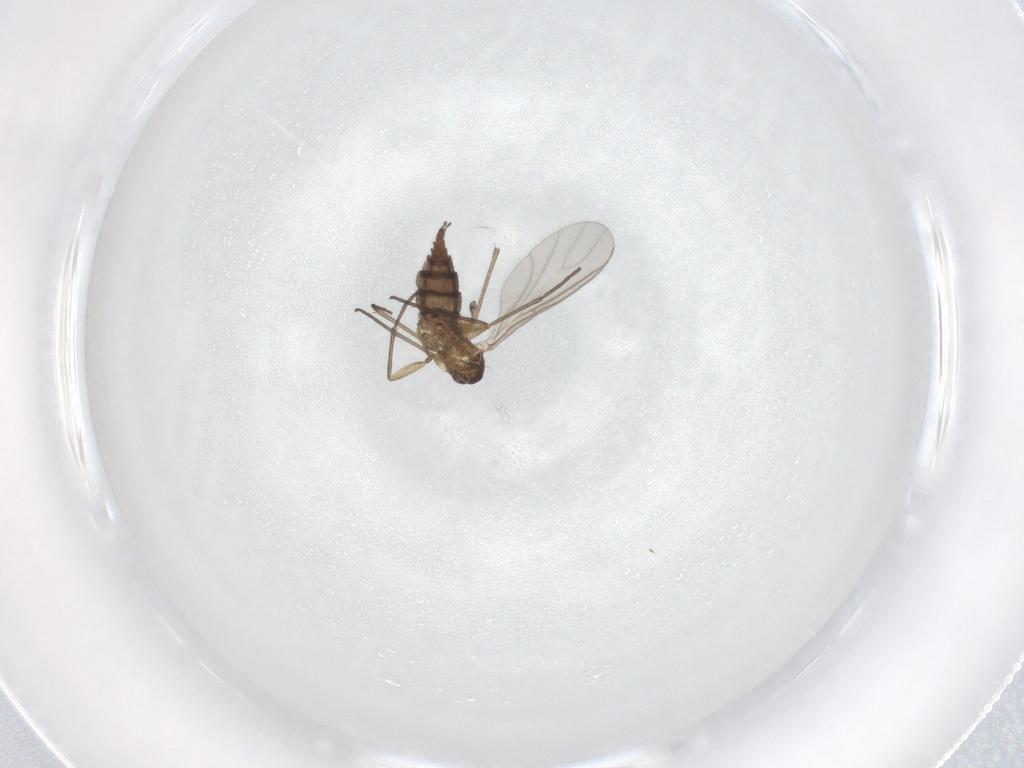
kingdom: Animalia
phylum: Arthropoda
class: Insecta
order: Diptera
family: Sciaridae
